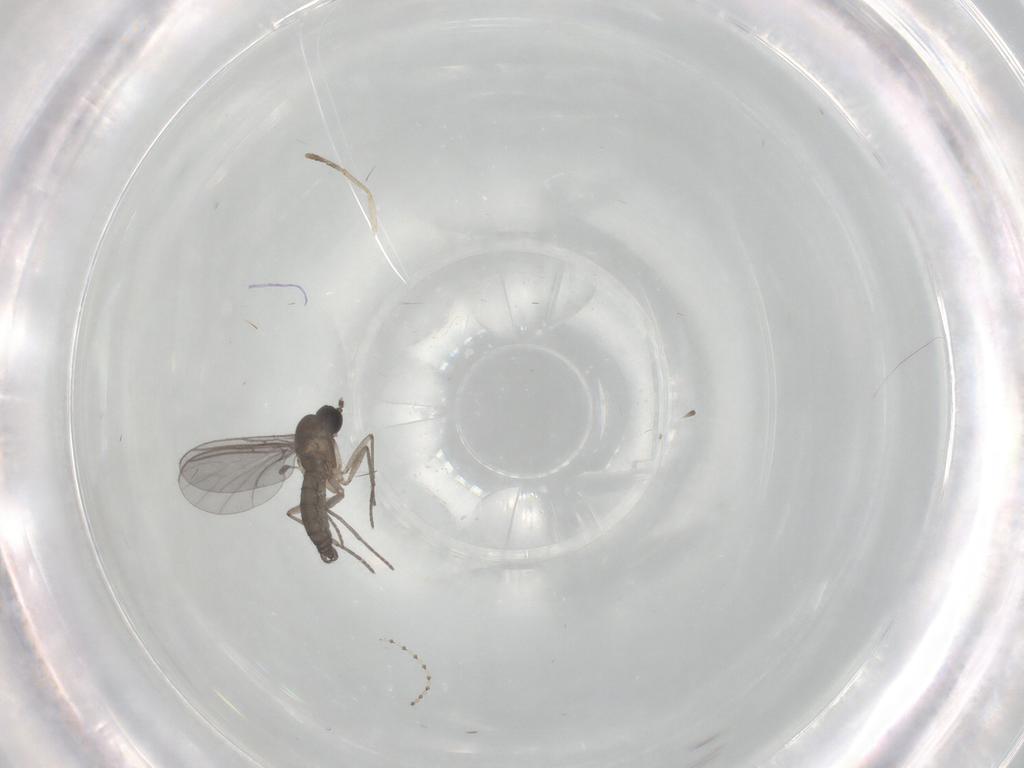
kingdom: Animalia
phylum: Arthropoda
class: Insecta
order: Diptera
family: Sciaridae
